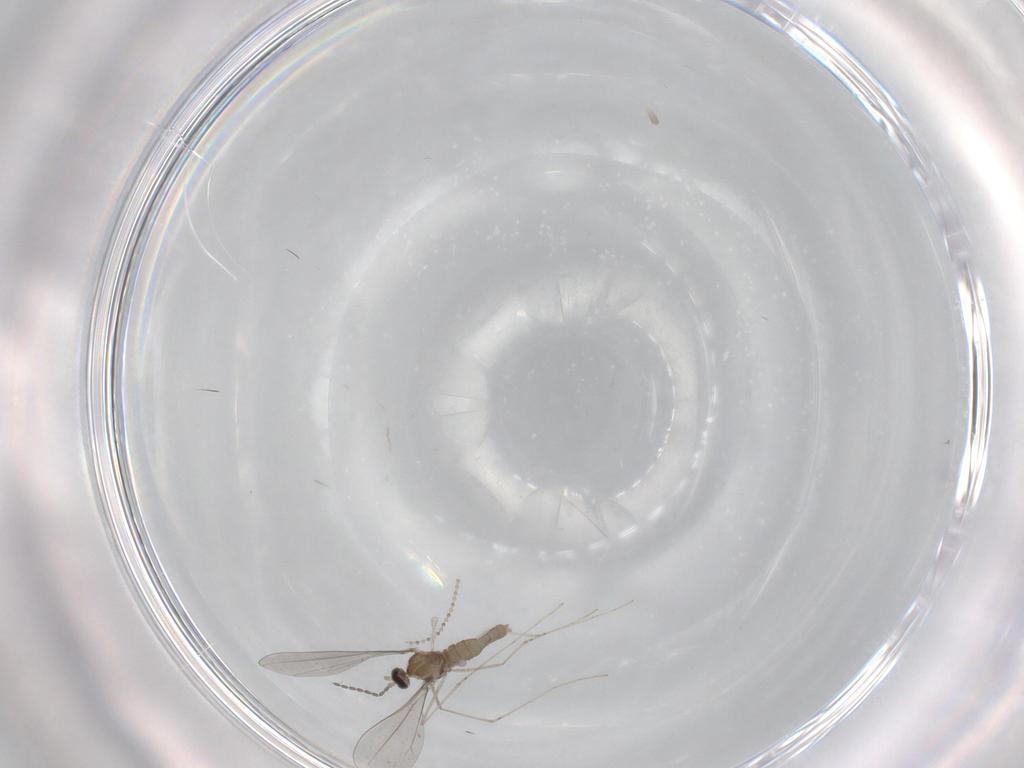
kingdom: Animalia
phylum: Arthropoda
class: Insecta
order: Diptera
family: Cecidomyiidae
